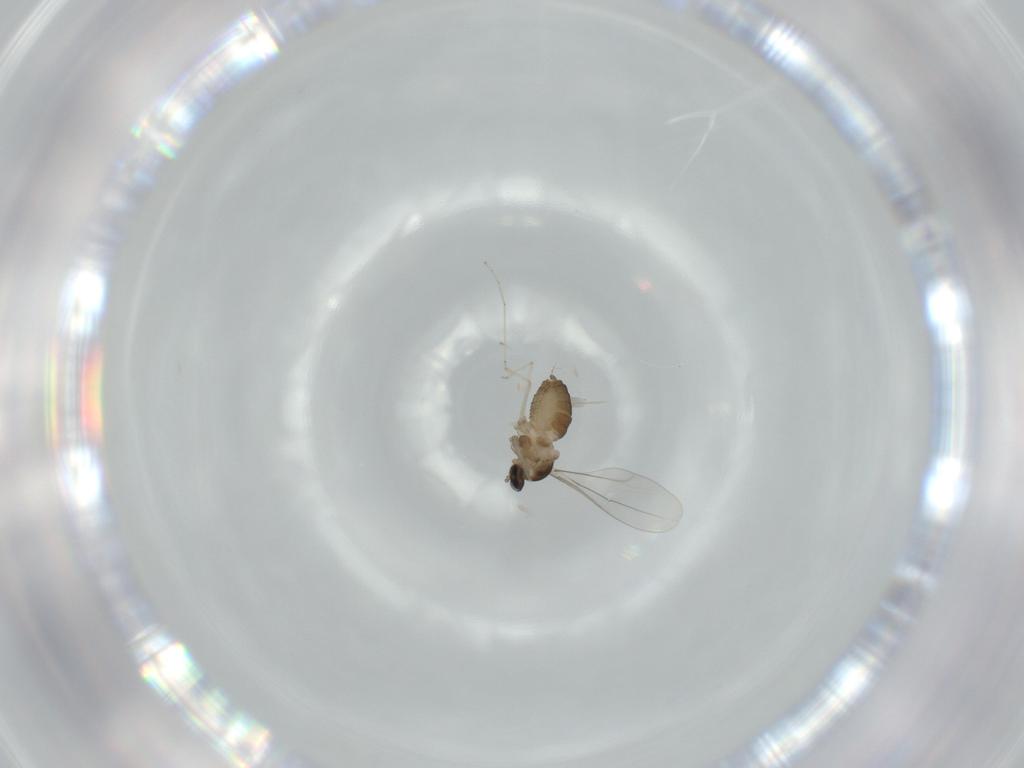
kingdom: Animalia
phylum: Arthropoda
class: Insecta
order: Diptera
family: Cecidomyiidae
